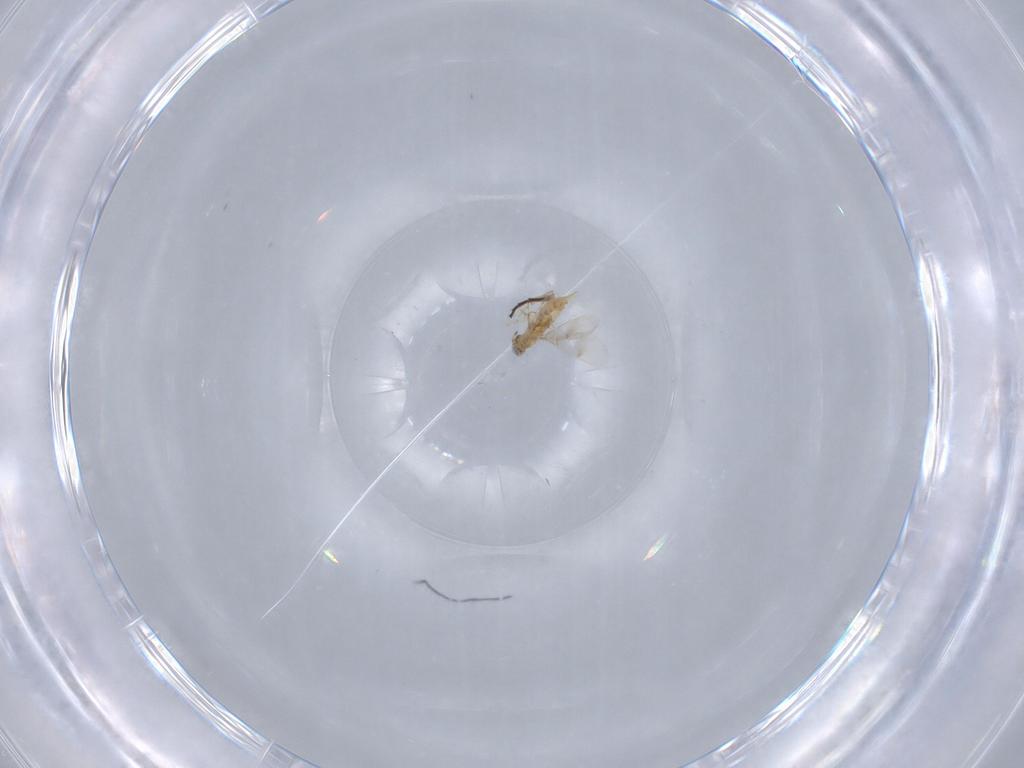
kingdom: Animalia
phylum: Arthropoda
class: Insecta
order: Hymenoptera
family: Aphelinidae
